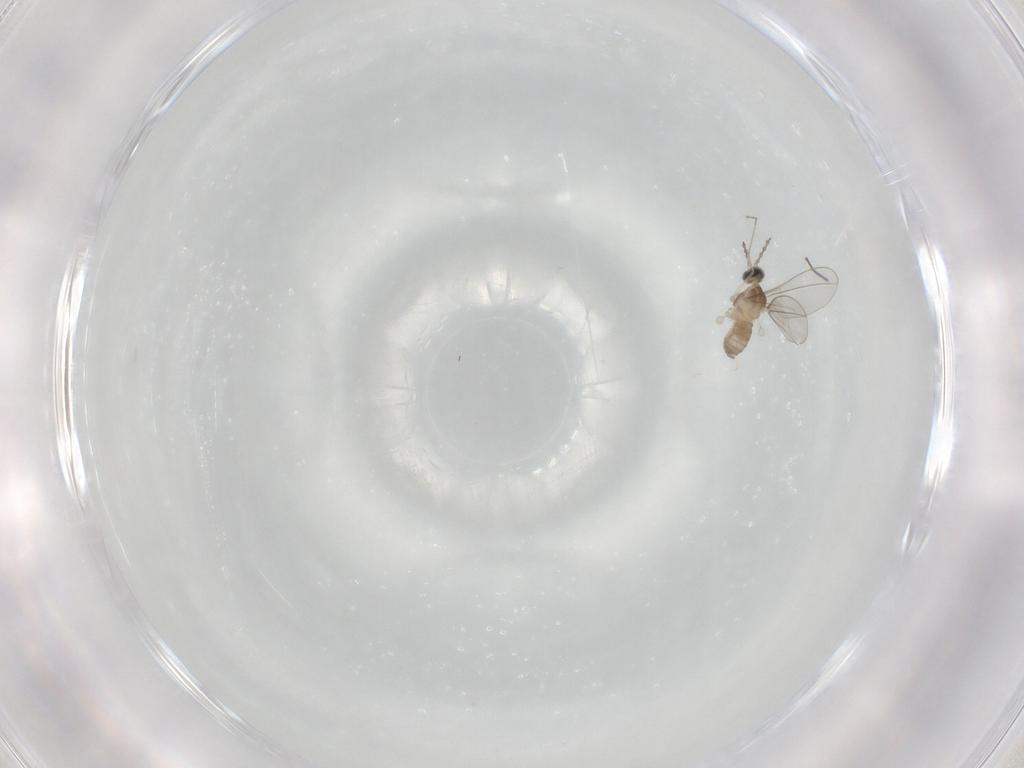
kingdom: Animalia
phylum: Arthropoda
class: Insecta
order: Diptera
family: Cecidomyiidae
